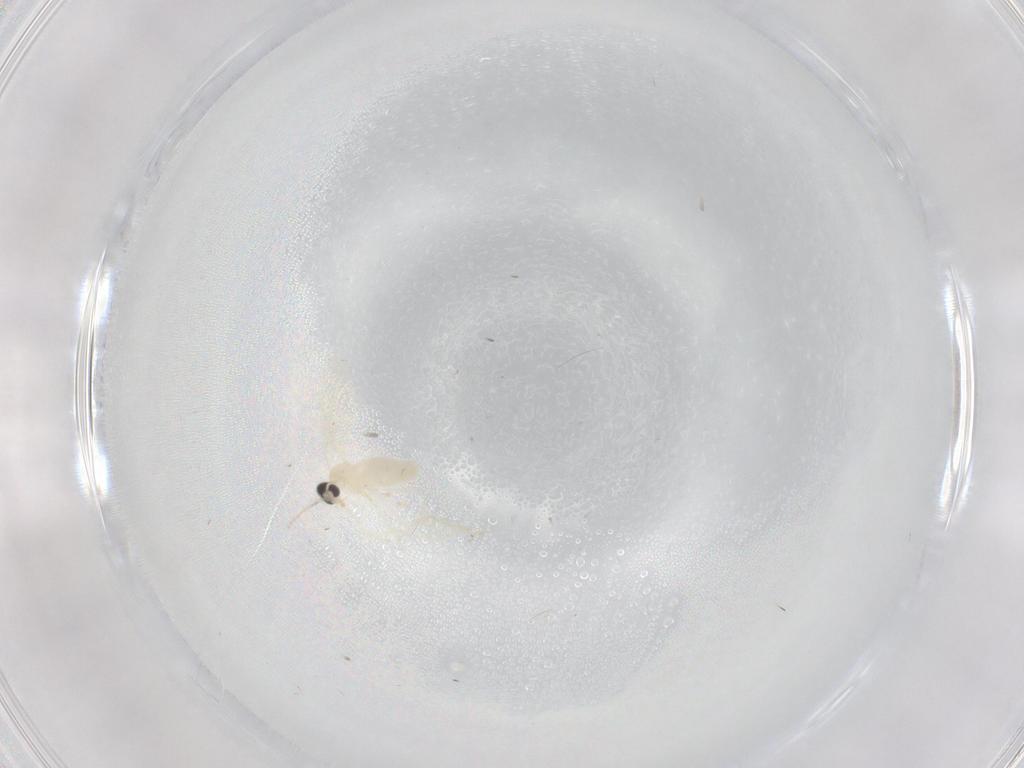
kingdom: Animalia
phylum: Arthropoda
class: Insecta
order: Diptera
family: Cecidomyiidae
